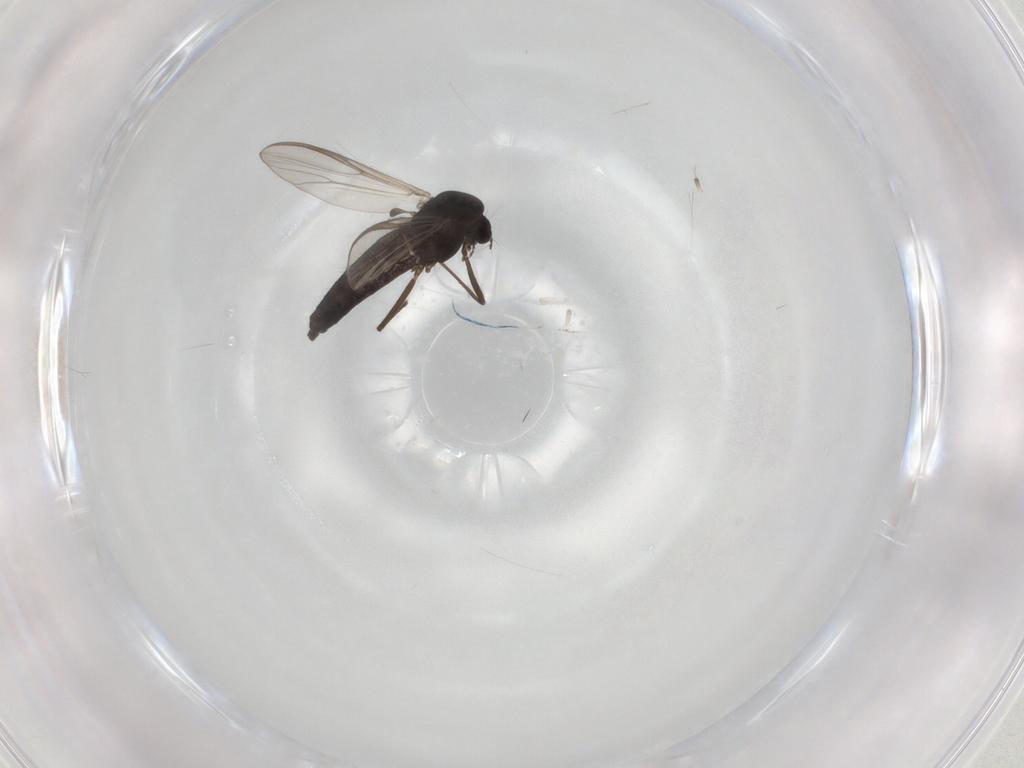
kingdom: Animalia
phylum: Arthropoda
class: Insecta
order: Diptera
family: Chironomidae
